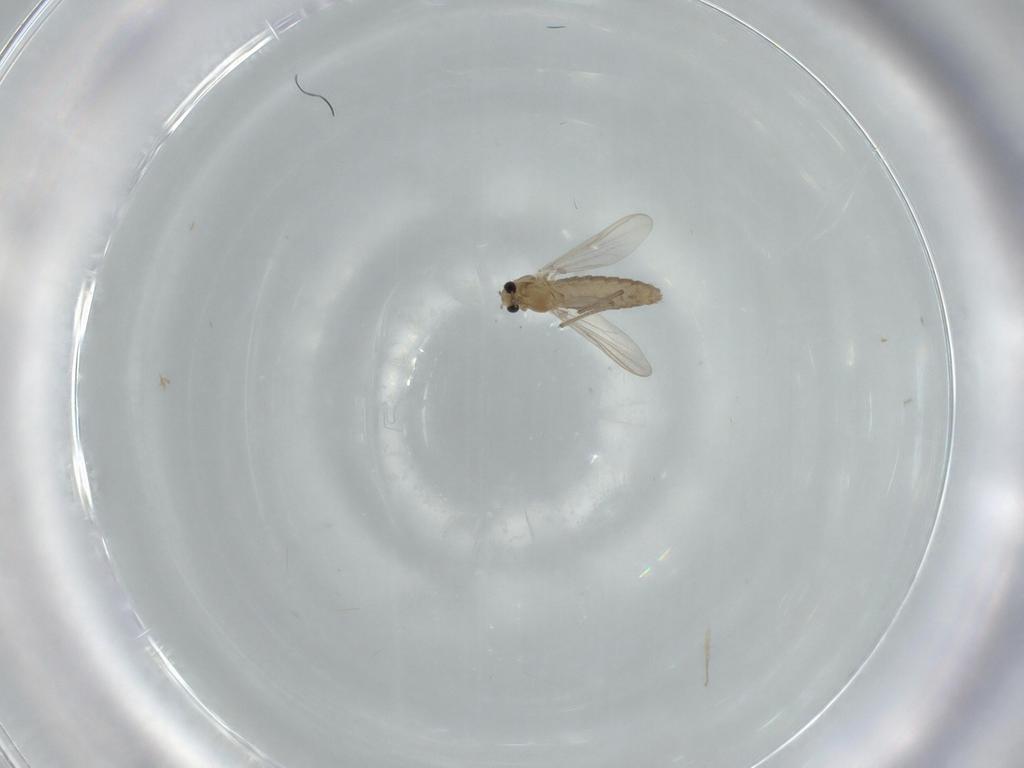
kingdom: Animalia
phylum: Arthropoda
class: Insecta
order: Diptera
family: Chironomidae
